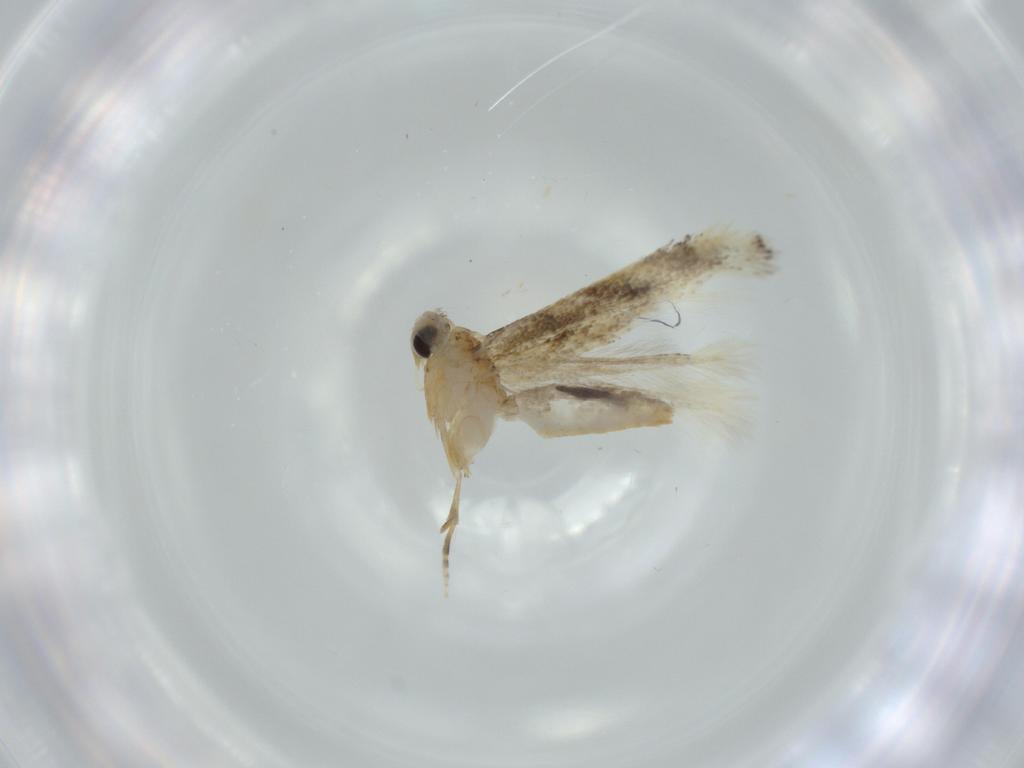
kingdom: Animalia
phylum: Arthropoda
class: Insecta
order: Lepidoptera
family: Bucculatricidae
